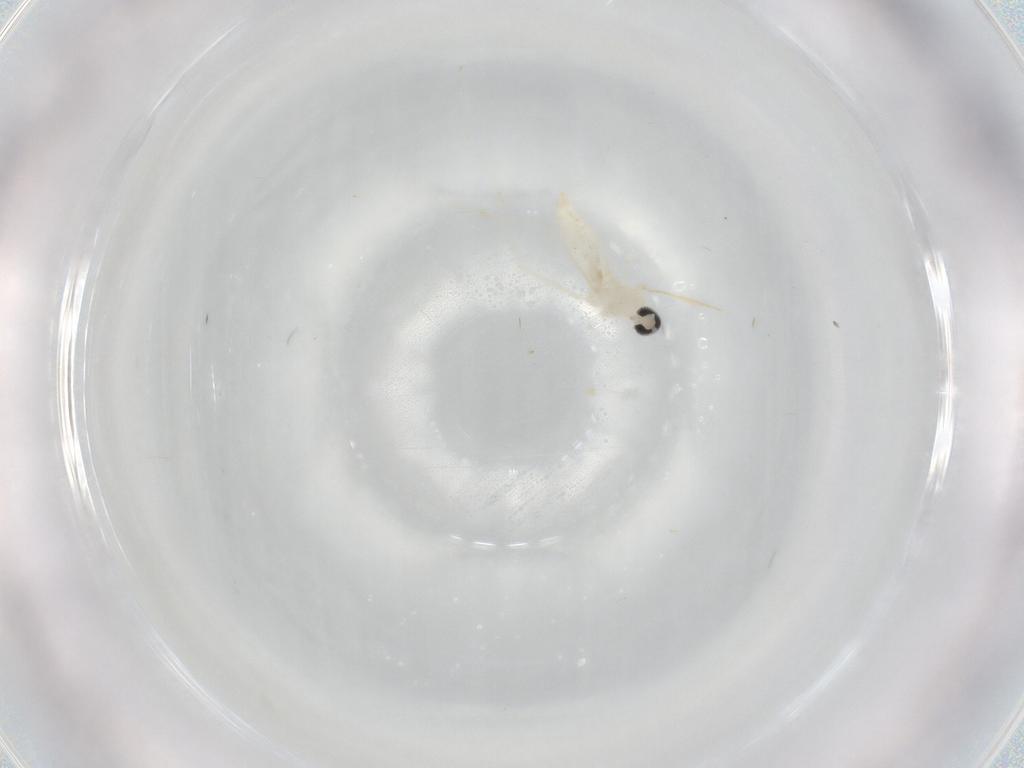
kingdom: Animalia
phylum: Arthropoda
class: Insecta
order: Diptera
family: Cecidomyiidae
